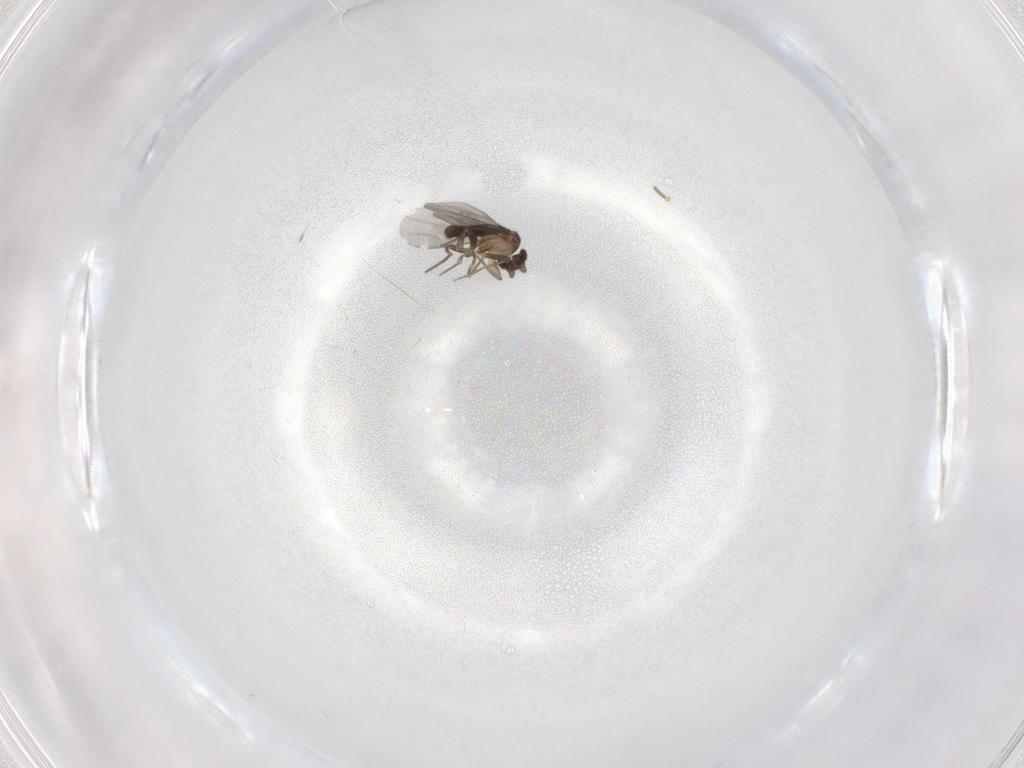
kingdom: Animalia
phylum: Arthropoda
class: Insecta
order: Diptera
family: Phoridae
